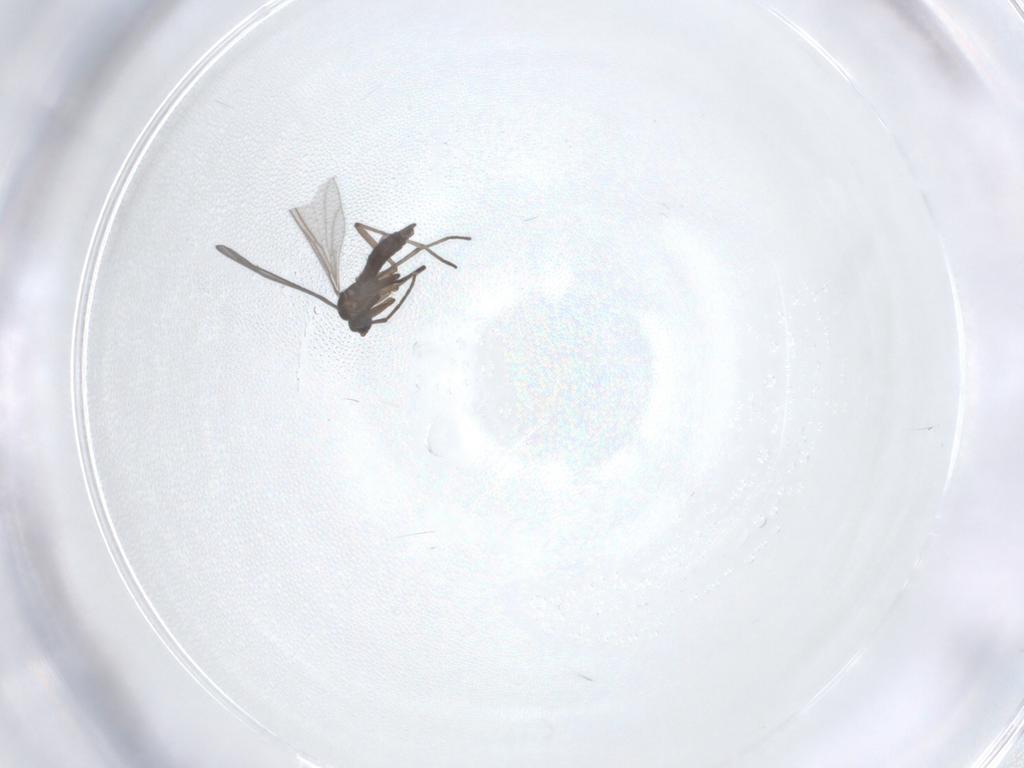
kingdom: Animalia
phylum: Arthropoda
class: Insecta
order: Diptera
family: Sciaridae
